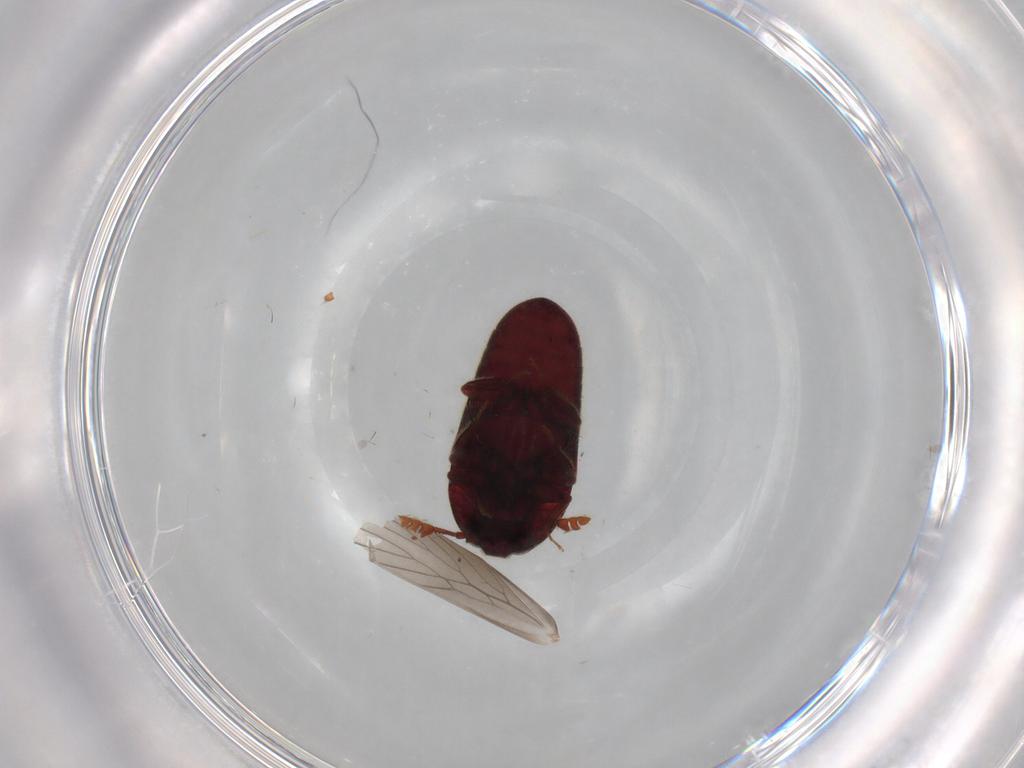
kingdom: Animalia
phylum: Arthropoda
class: Insecta
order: Coleoptera
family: Throscidae
